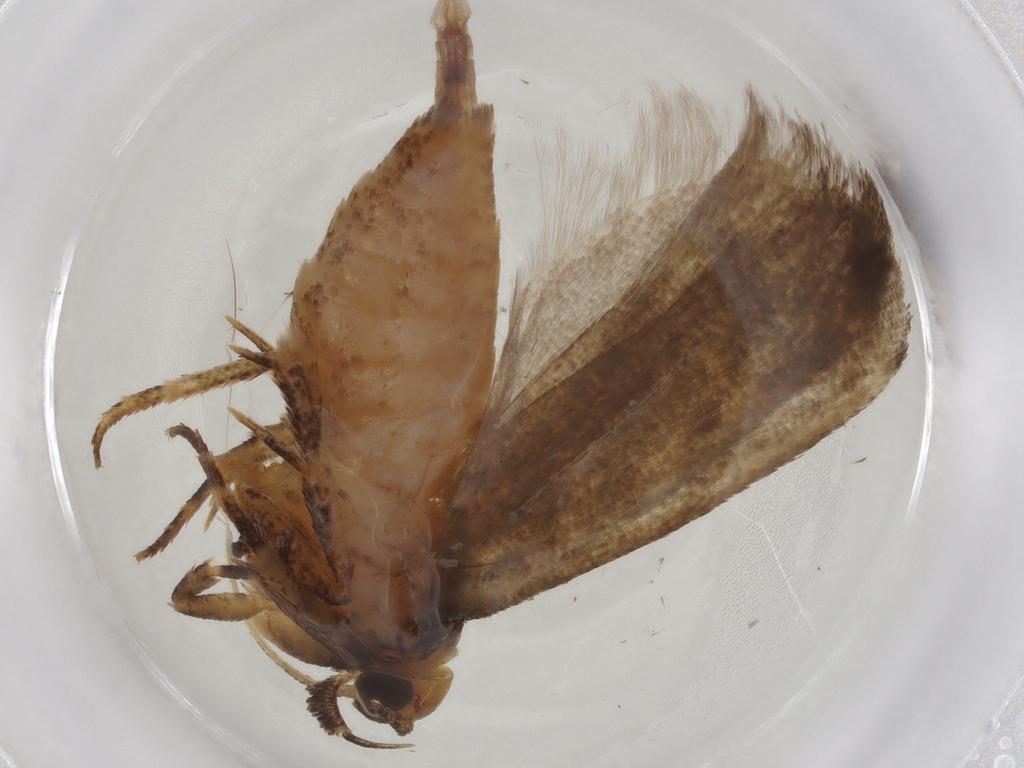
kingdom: Animalia
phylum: Arthropoda
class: Insecta
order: Lepidoptera
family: Gelechiidae
